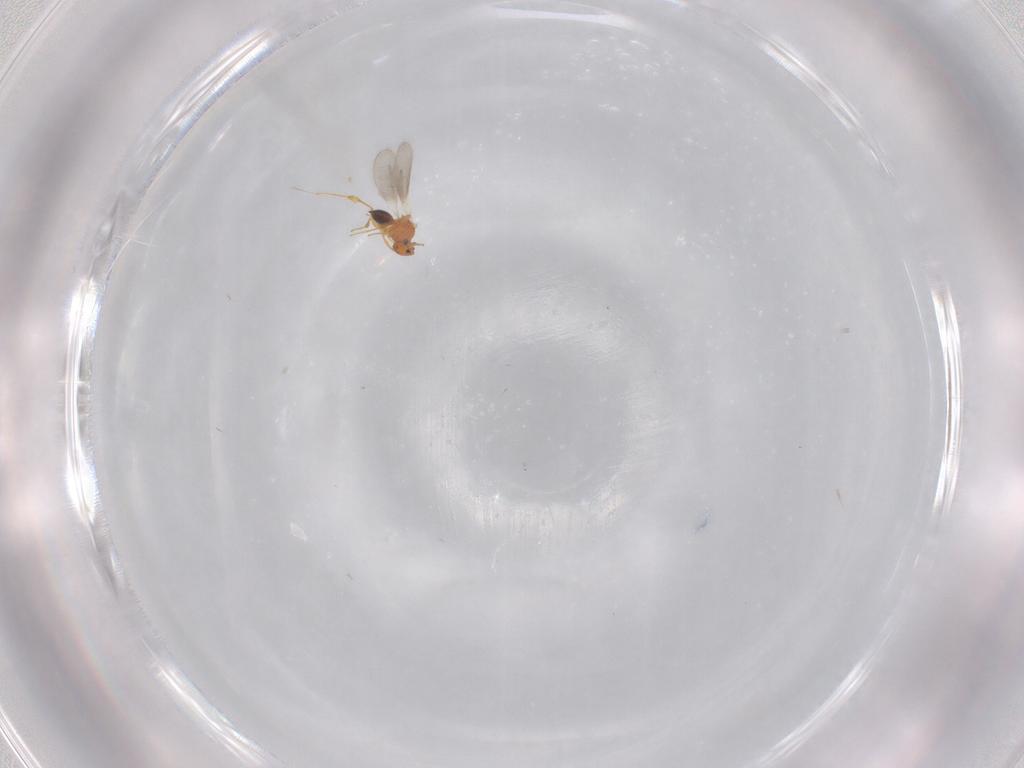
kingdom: Animalia
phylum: Arthropoda
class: Insecta
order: Hymenoptera
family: Platygastridae
